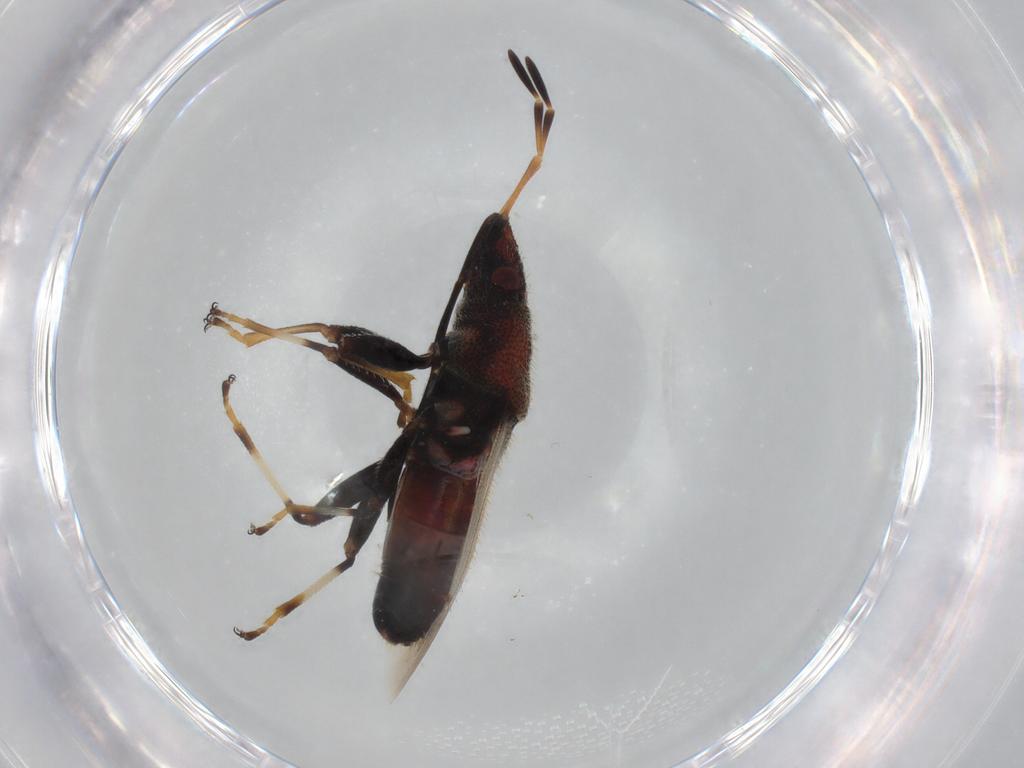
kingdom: Animalia
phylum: Arthropoda
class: Insecta
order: Hemiptera
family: Oxycarenidae
